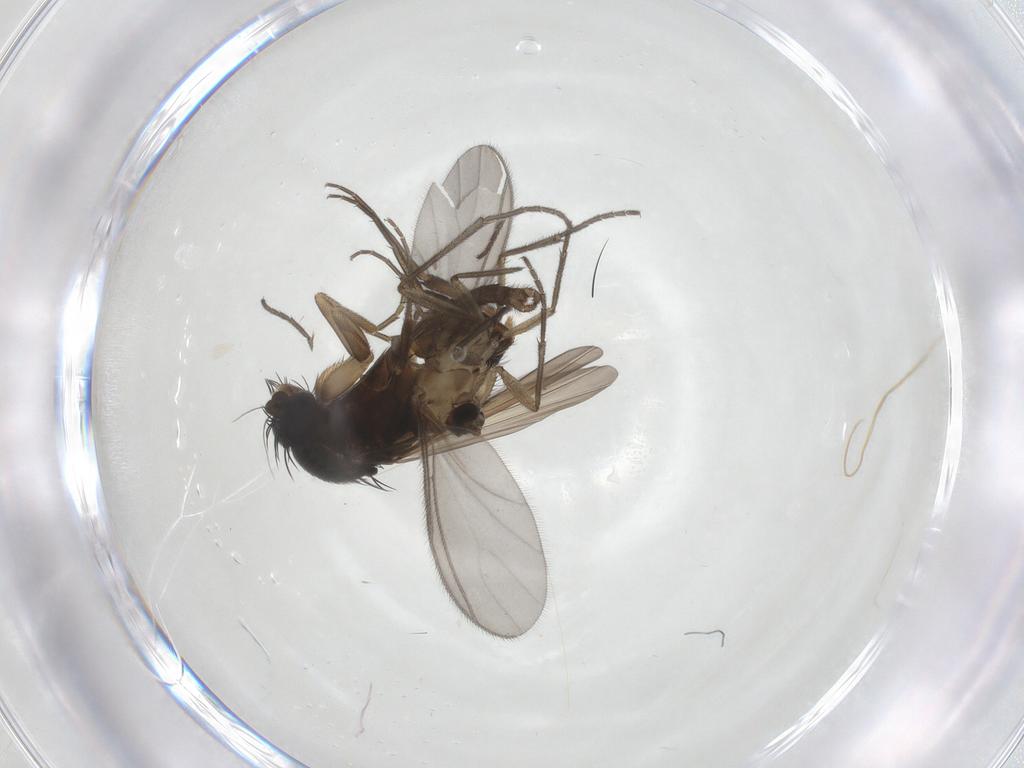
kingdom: Animalia
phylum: Arthropoda
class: Insecta
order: Diptera
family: Phoridae
